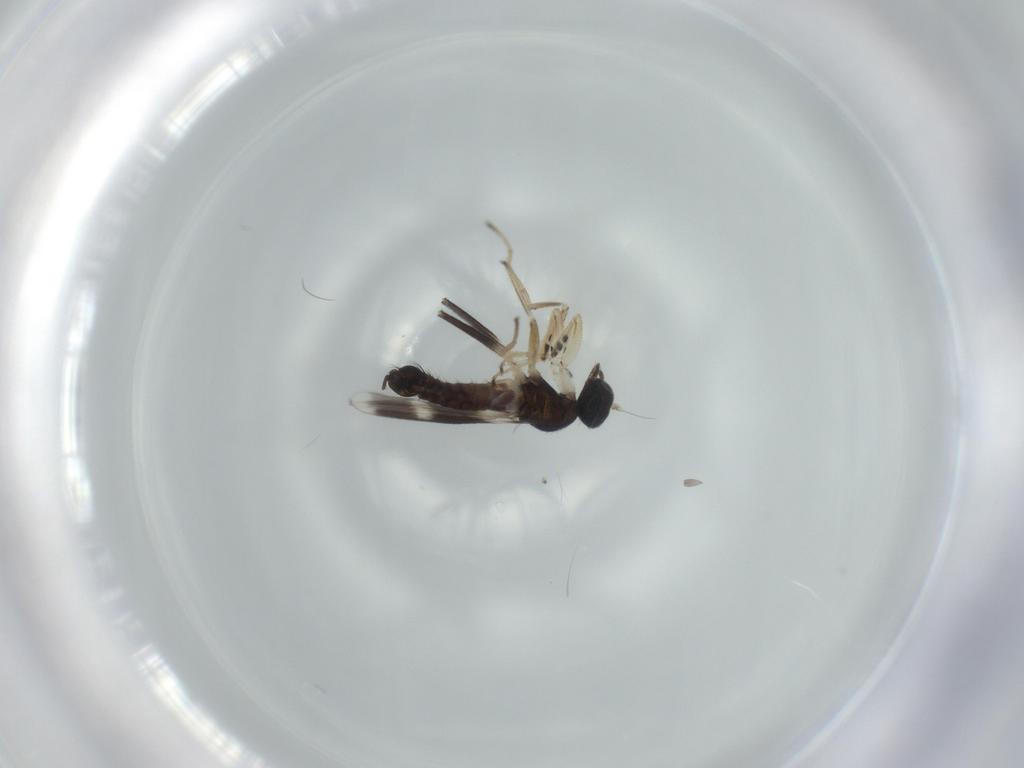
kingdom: Animalia
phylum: Arthropoda
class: Insecta
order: Diptera
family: Hybotidae
